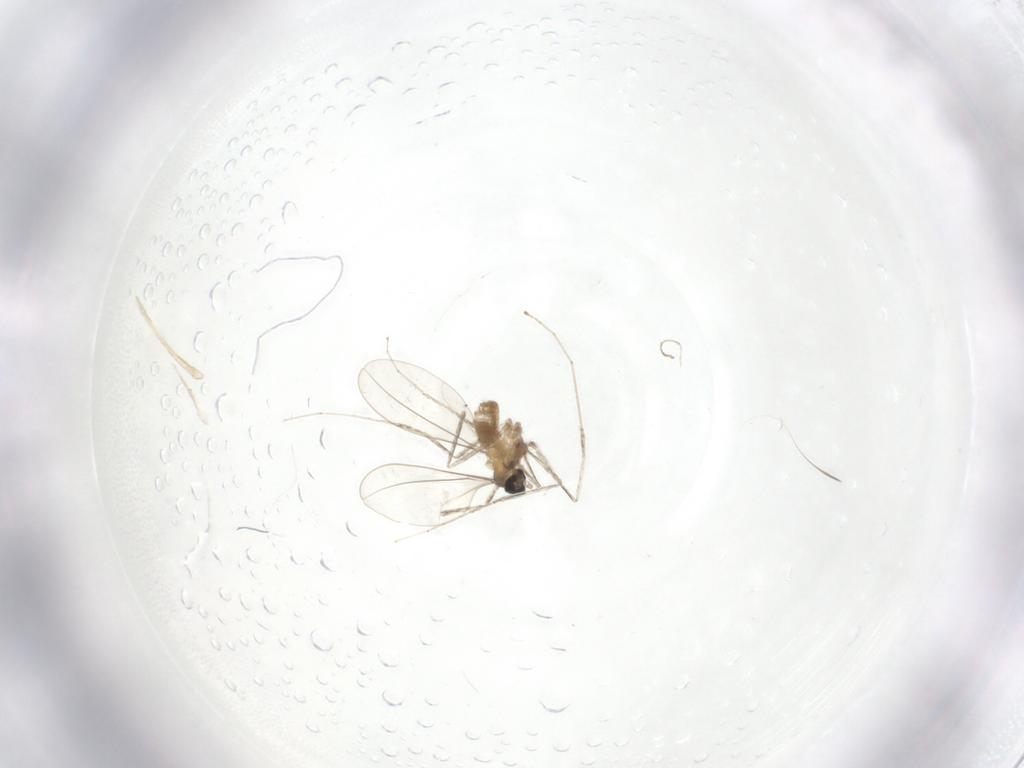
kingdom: Animalia
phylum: Arthropoda
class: Insecta
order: Diptera
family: Cecidomyiidae
